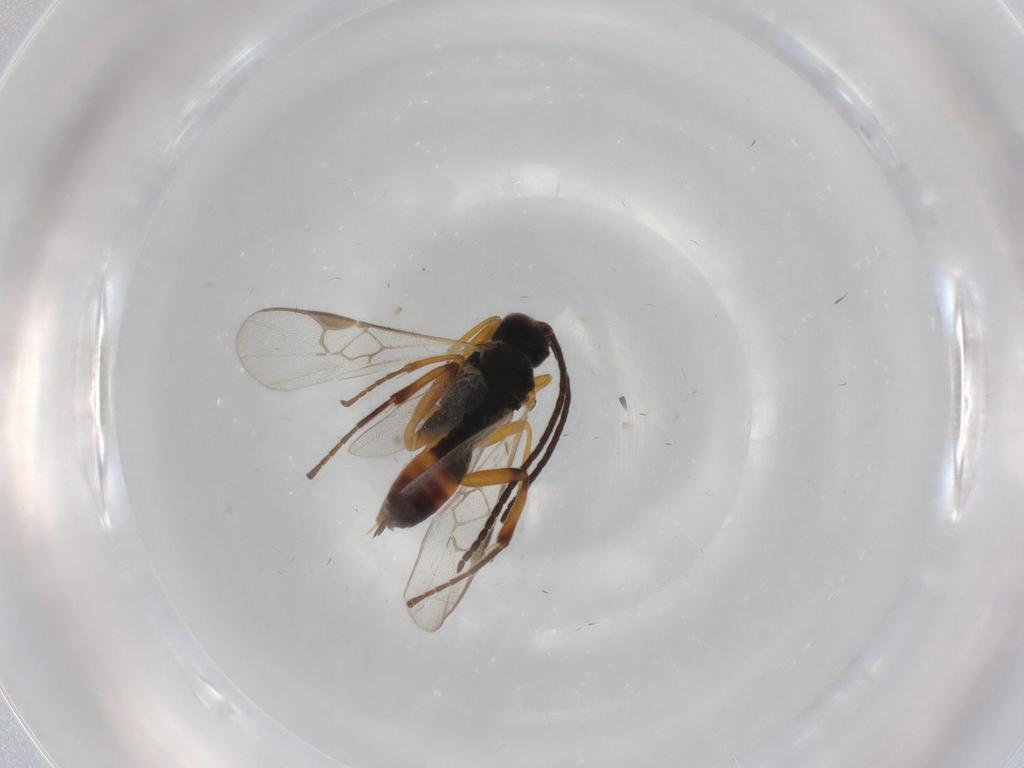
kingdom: Animalia
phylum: Arthropoda
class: Insecta
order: Hymenoptera
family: Braconidae
